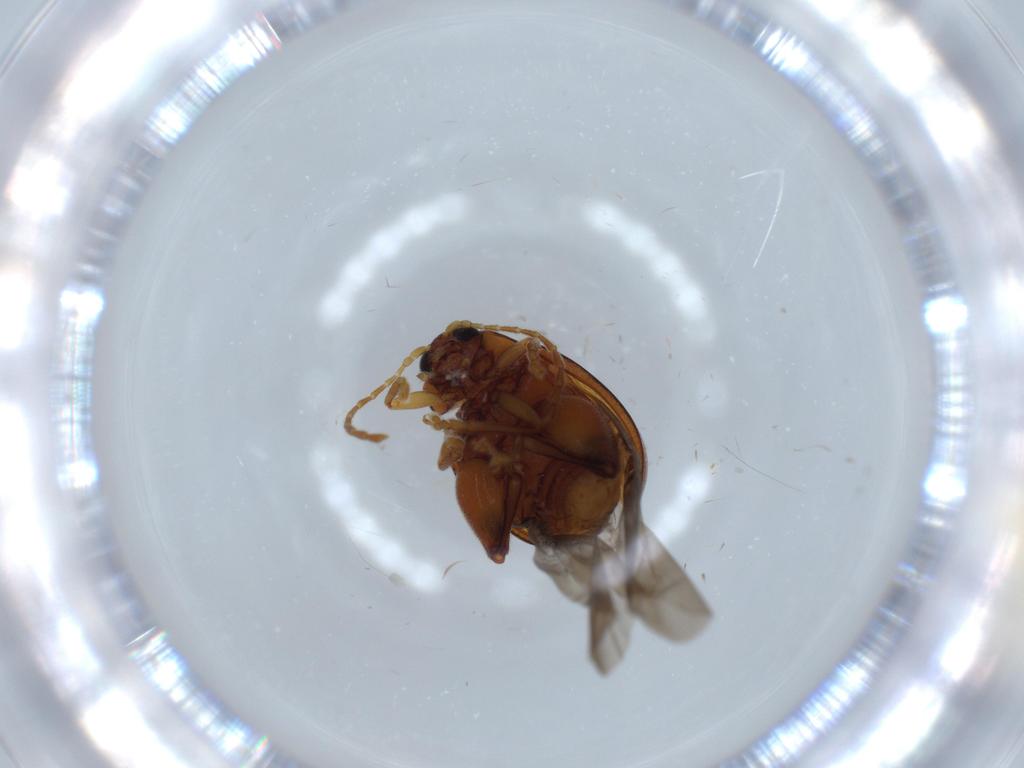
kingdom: Animalia
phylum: Arthropoda
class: Insecta
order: Coleoptera
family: Chrysomelidae
